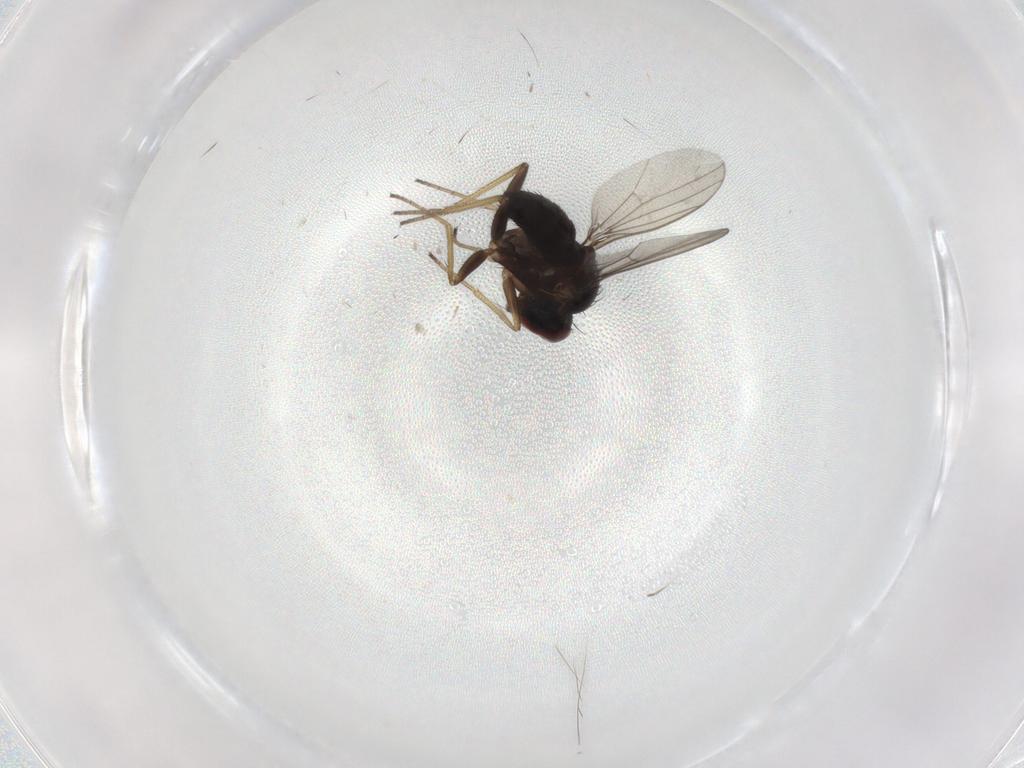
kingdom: Animalia
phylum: Arthropoda
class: Insecta
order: Diptera
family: Dolichopodidae
